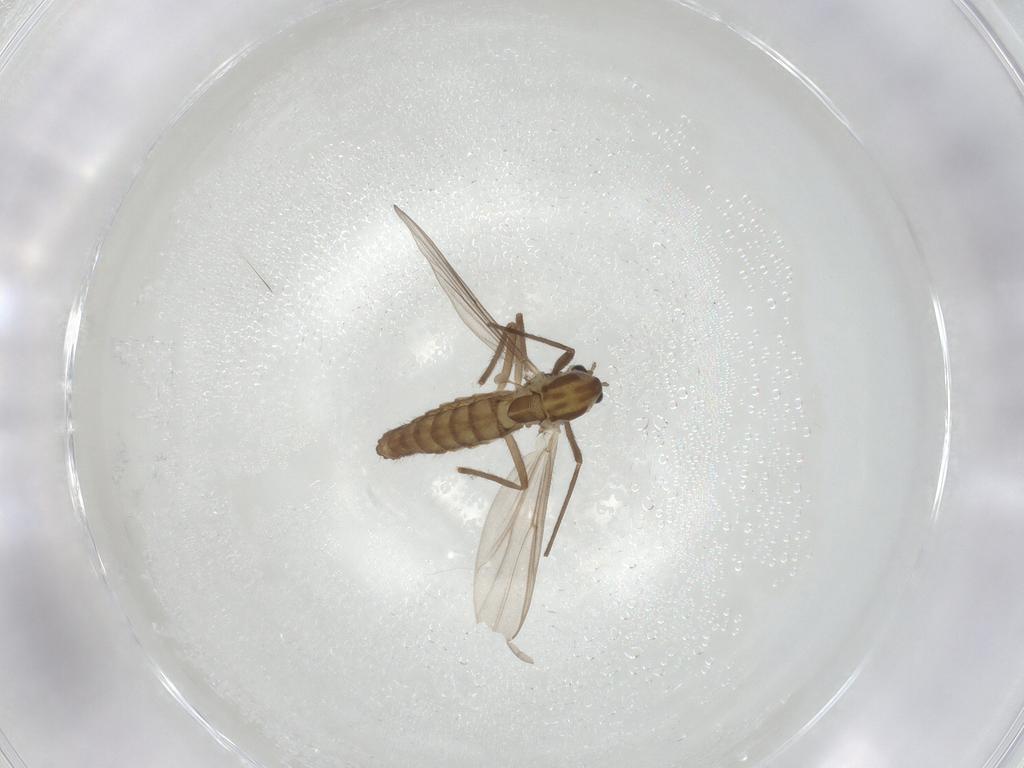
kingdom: Animalia
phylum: Arthropoda
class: Insecta
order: Diptera
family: Chironomidae
